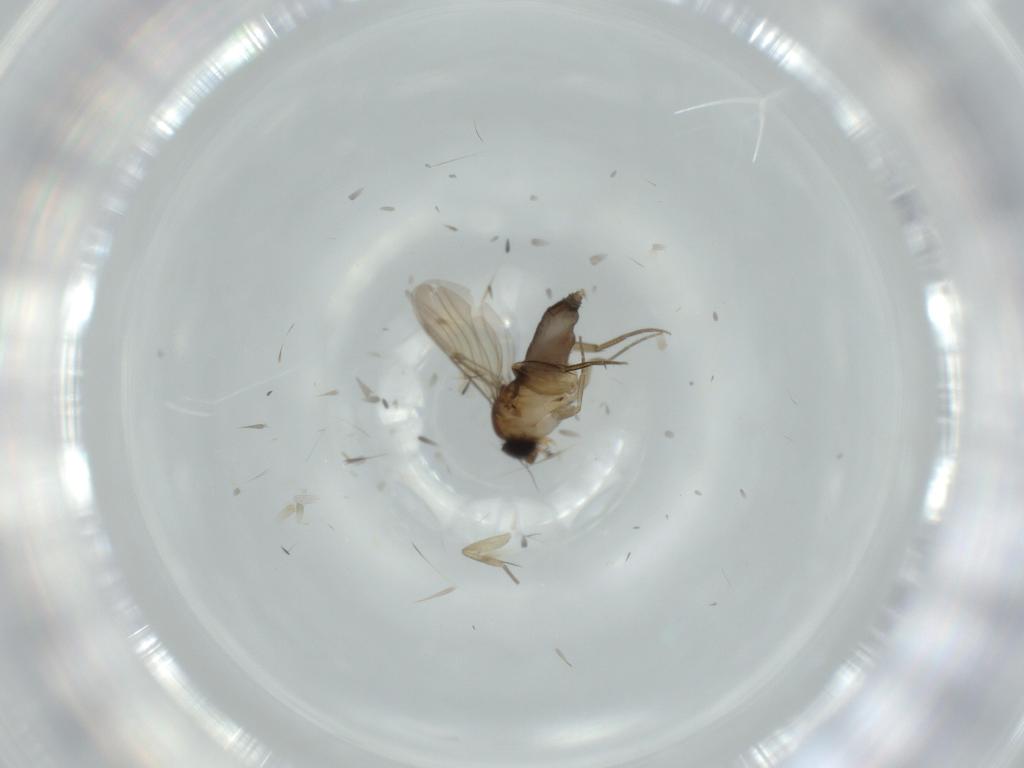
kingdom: Animalia
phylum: Arthropoda
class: Insecta
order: Diptera
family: Phoridae
